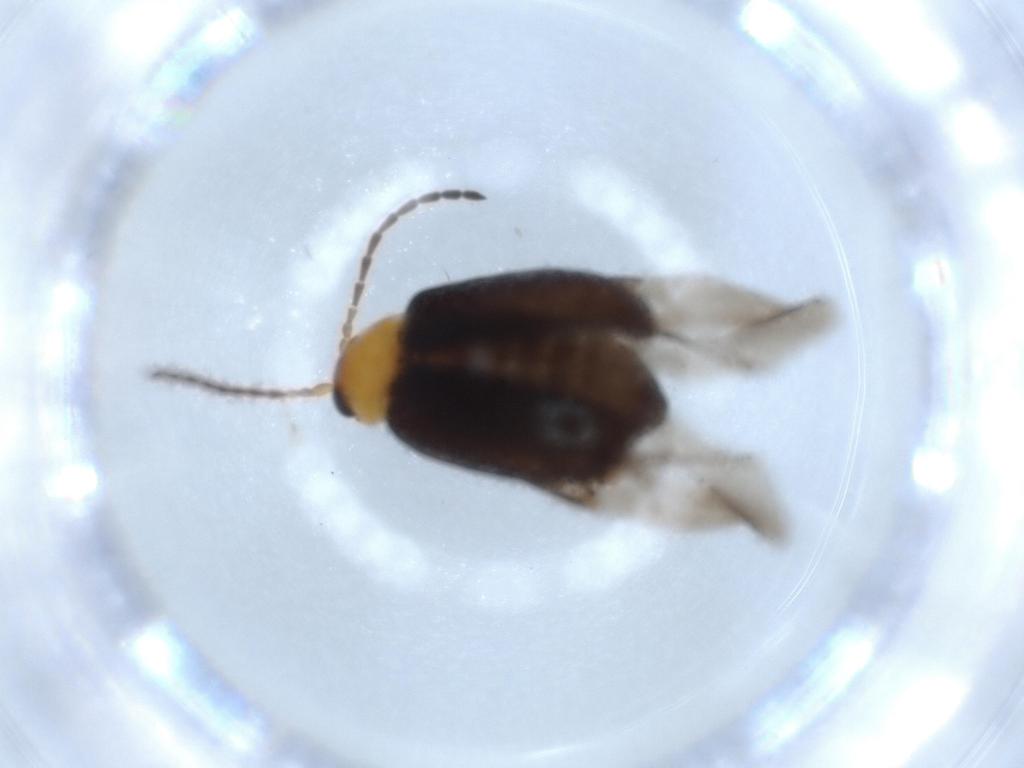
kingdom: Animalia
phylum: Arthropoda
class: Insecta
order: Coleoptera
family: Chrysomelidae
